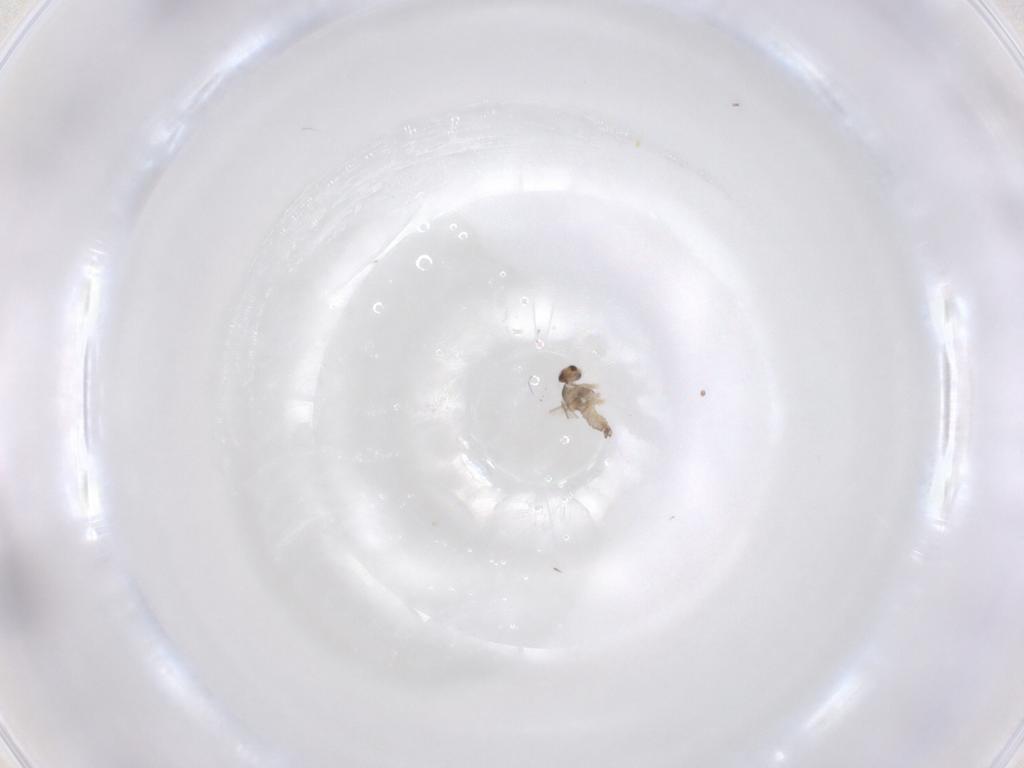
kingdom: Animalia
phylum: Arthropoda
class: Insecta
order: Diptera
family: Cecidomyiidae
